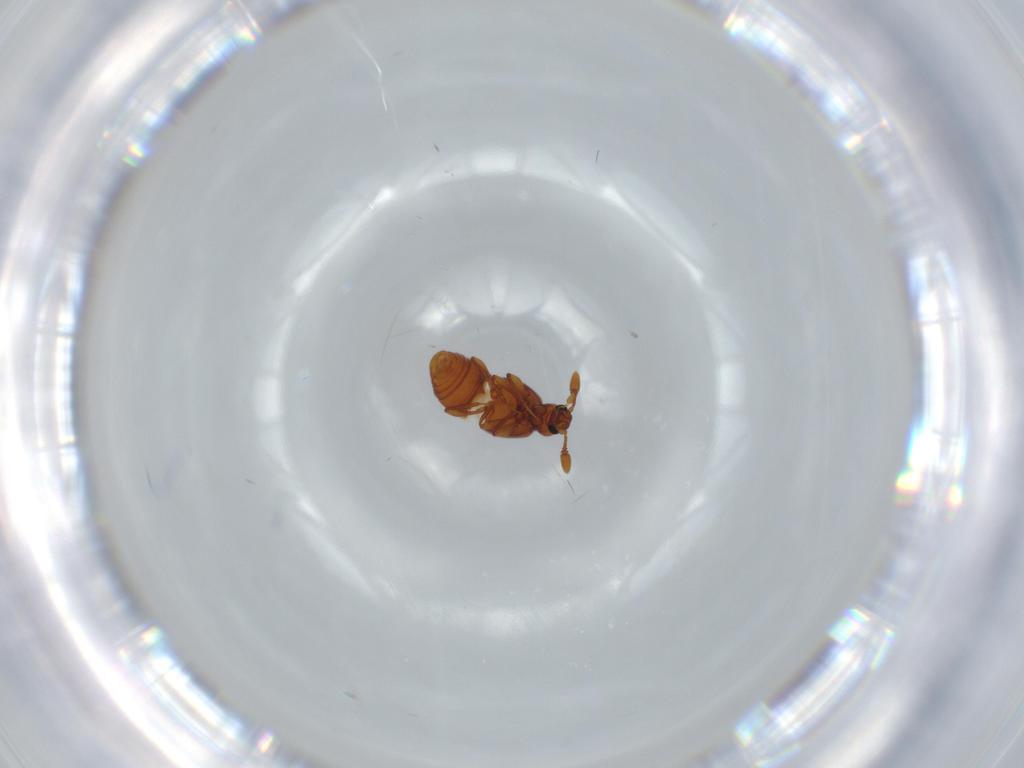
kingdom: Animalia
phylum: Arthropoda
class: Insecta
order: Coleoptera
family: Staphylinidae
